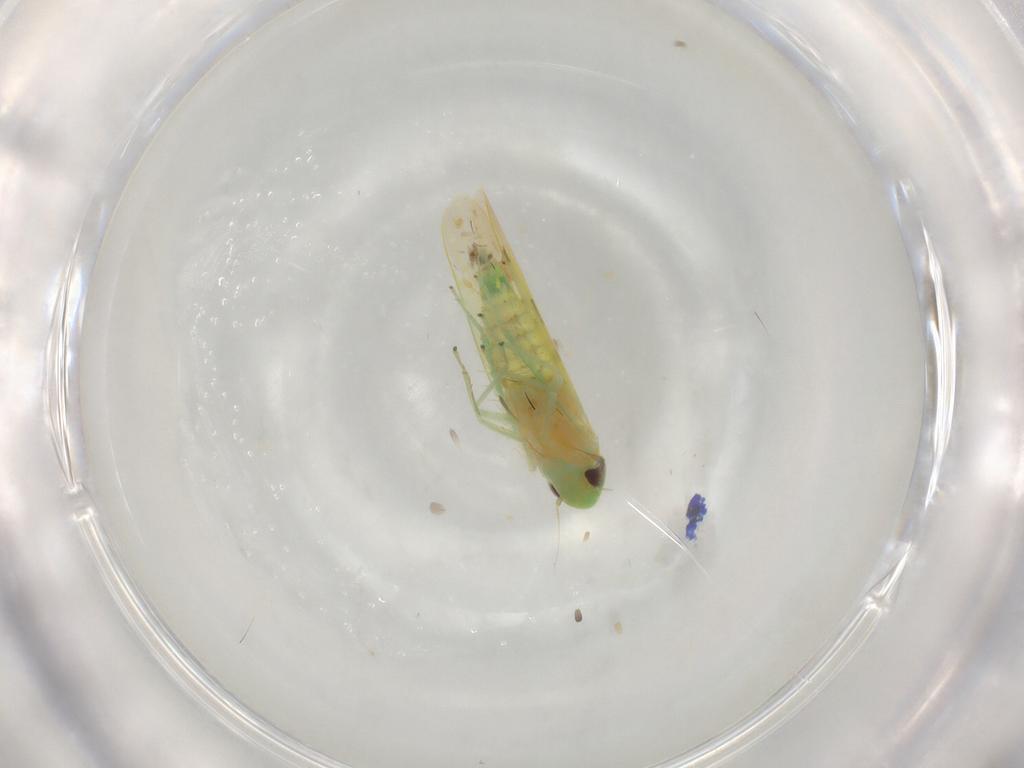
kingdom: Animalia
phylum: Arthropoda
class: Insecta
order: Hemiptera
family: Cicadellidae
